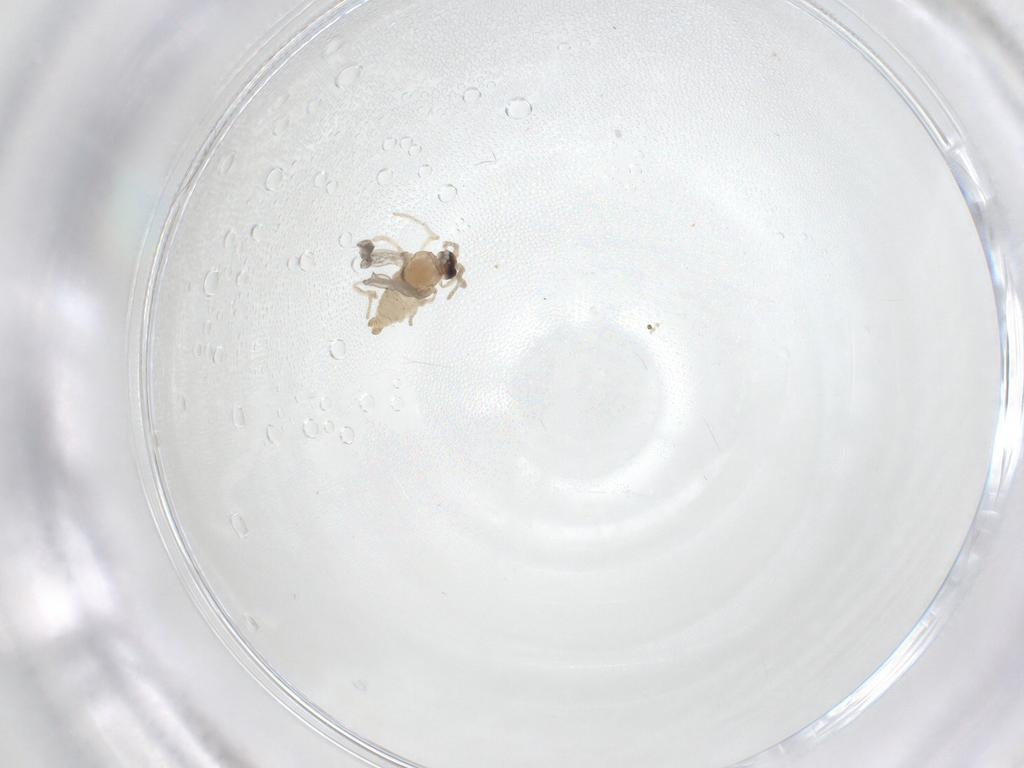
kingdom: Animalia
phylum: Arthropoda
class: Insecta
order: Diptera
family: Cecidomyiidae
